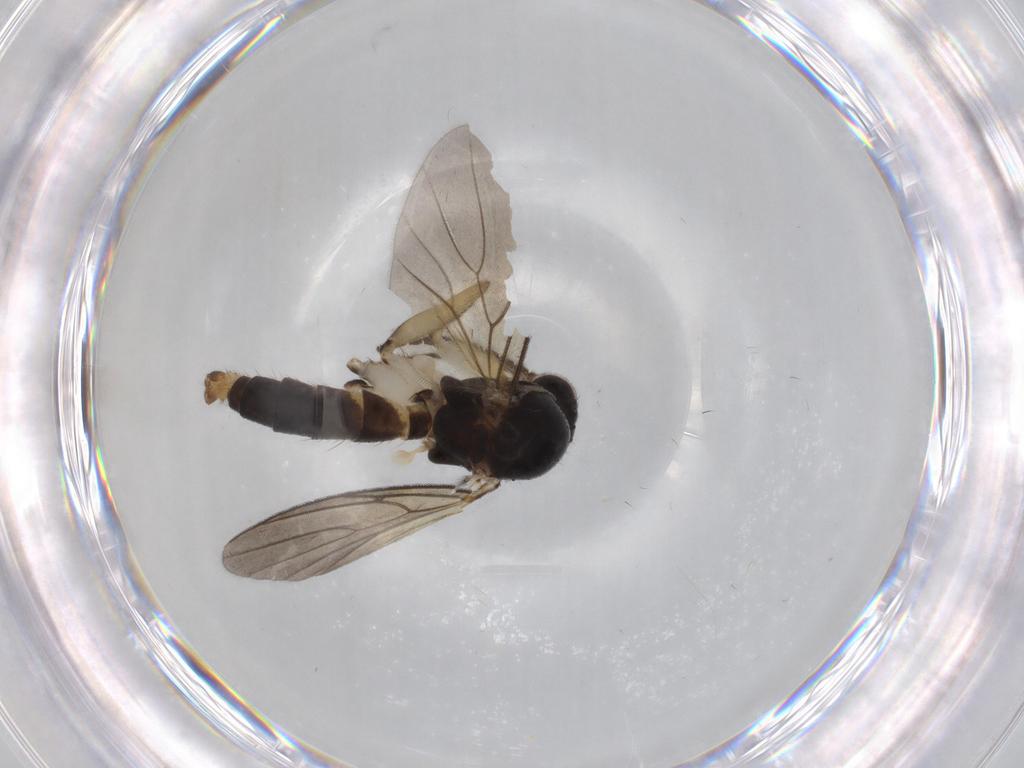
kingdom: Animalia
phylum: Arthropoda
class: Insecta
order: Diptera
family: Mycetophilidae
